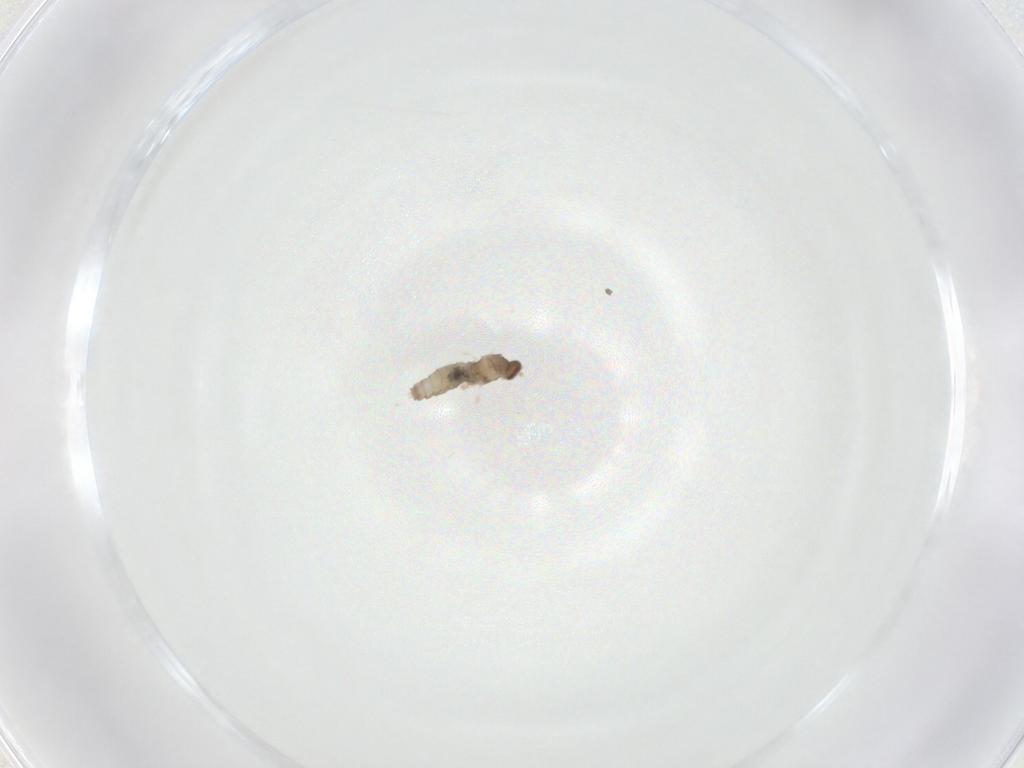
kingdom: Animalia
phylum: Arthropoda
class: Insecta
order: Diptera
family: Cecidomyiidae
